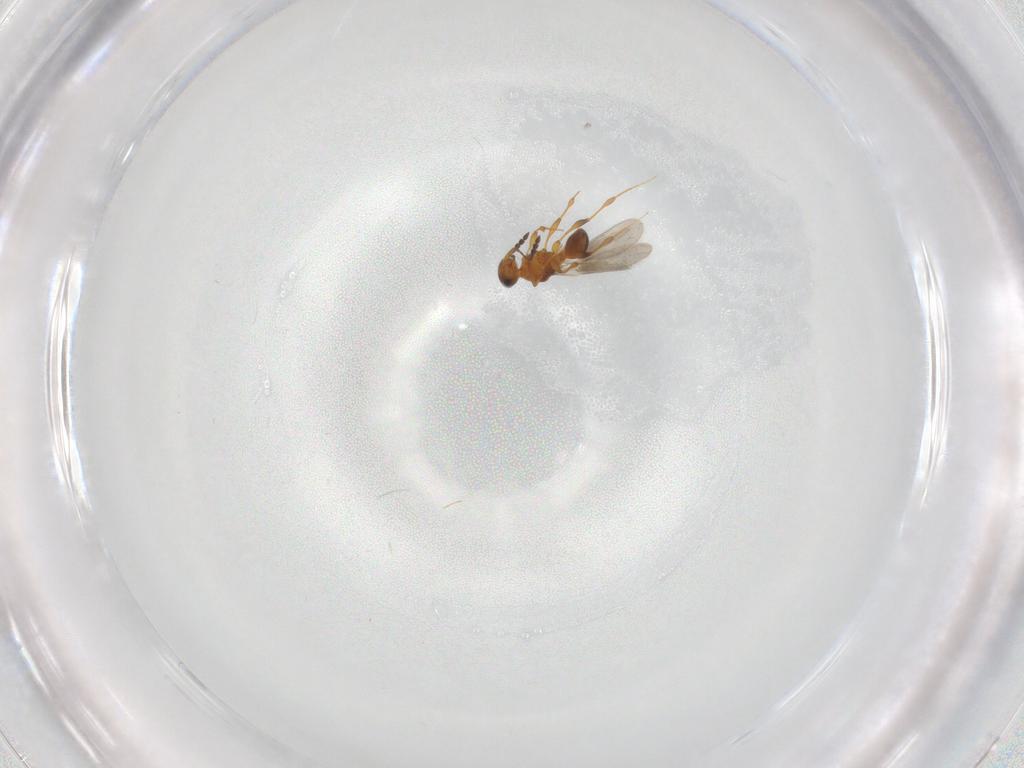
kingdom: Animalia
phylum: Arthropoda
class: Insecta
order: Hymenoptera
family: Platygastridae
